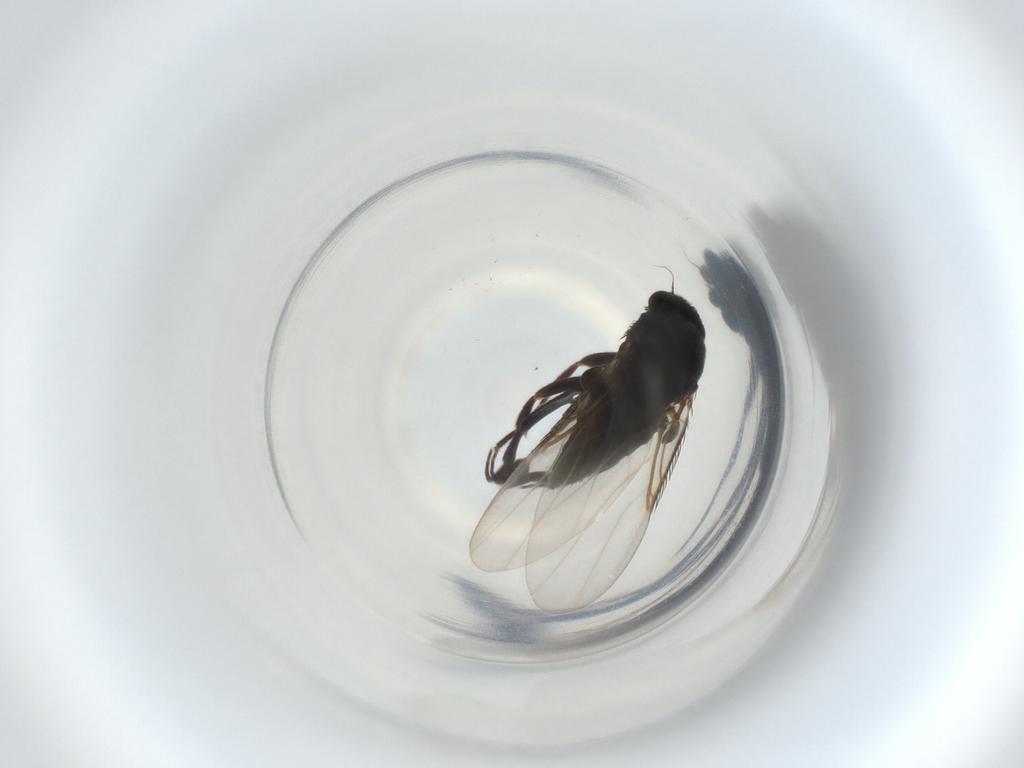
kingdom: Animalia
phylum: Arthropoda
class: Insecta
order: Diptera
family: Phoridae
